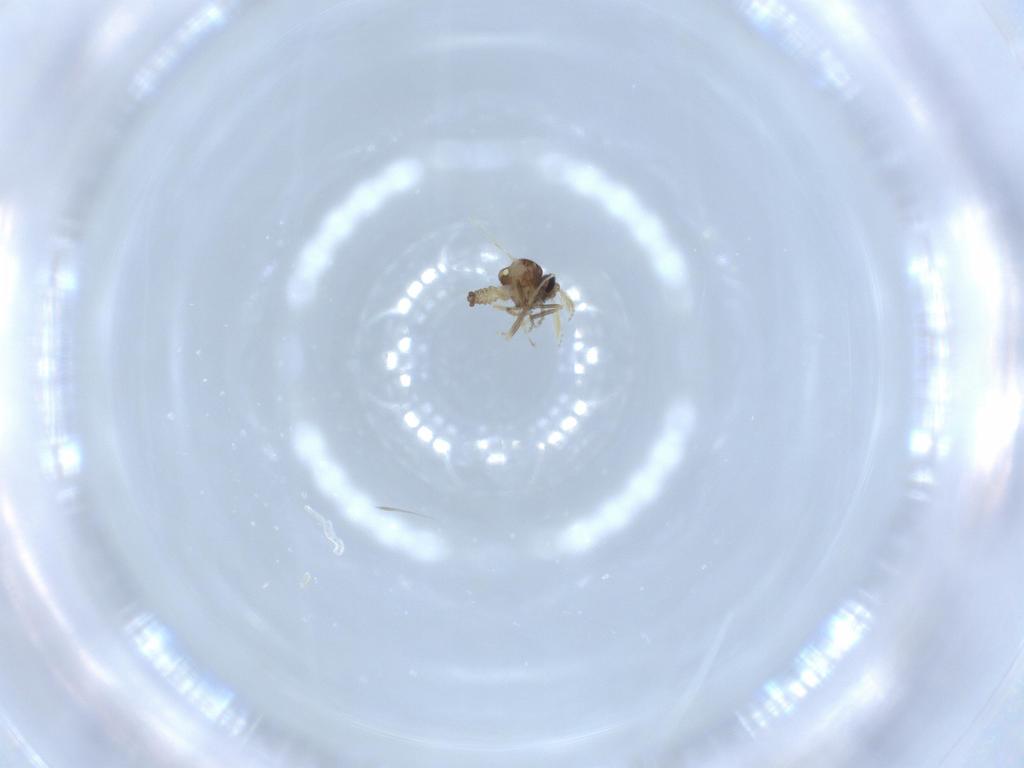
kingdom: Animalia
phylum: Arthropoda
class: Insecta
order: Diptera
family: Ceratopogonidae
